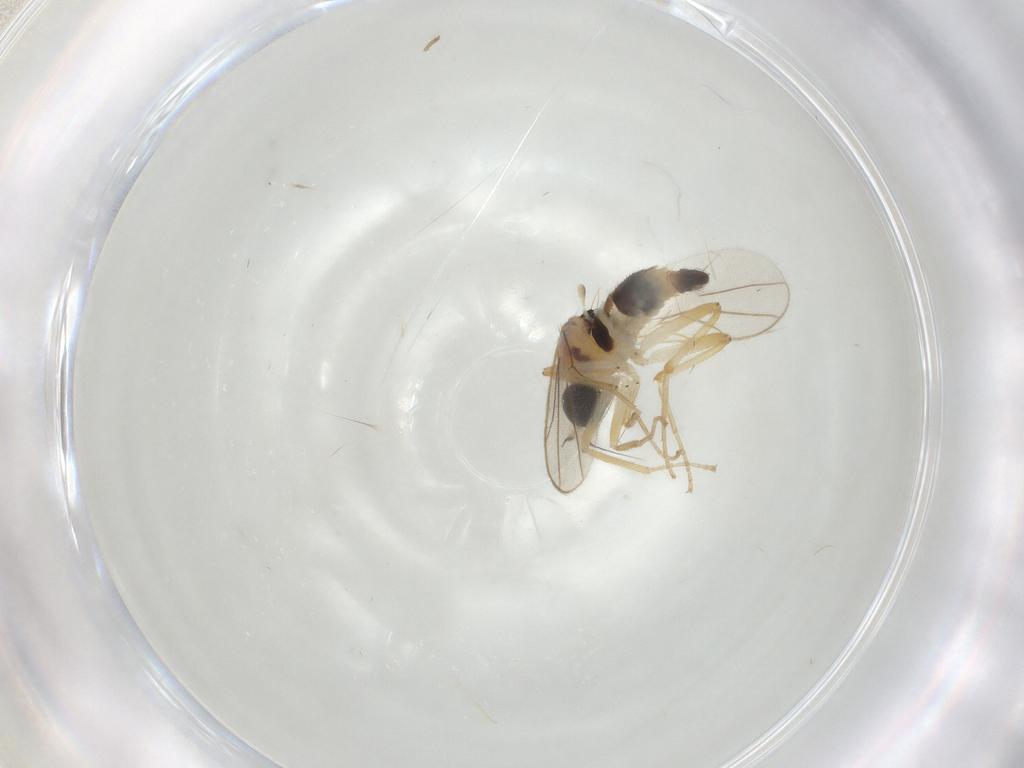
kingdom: Animalia
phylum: Arthropoda
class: Insecta
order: Diptera
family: Hybotidae
